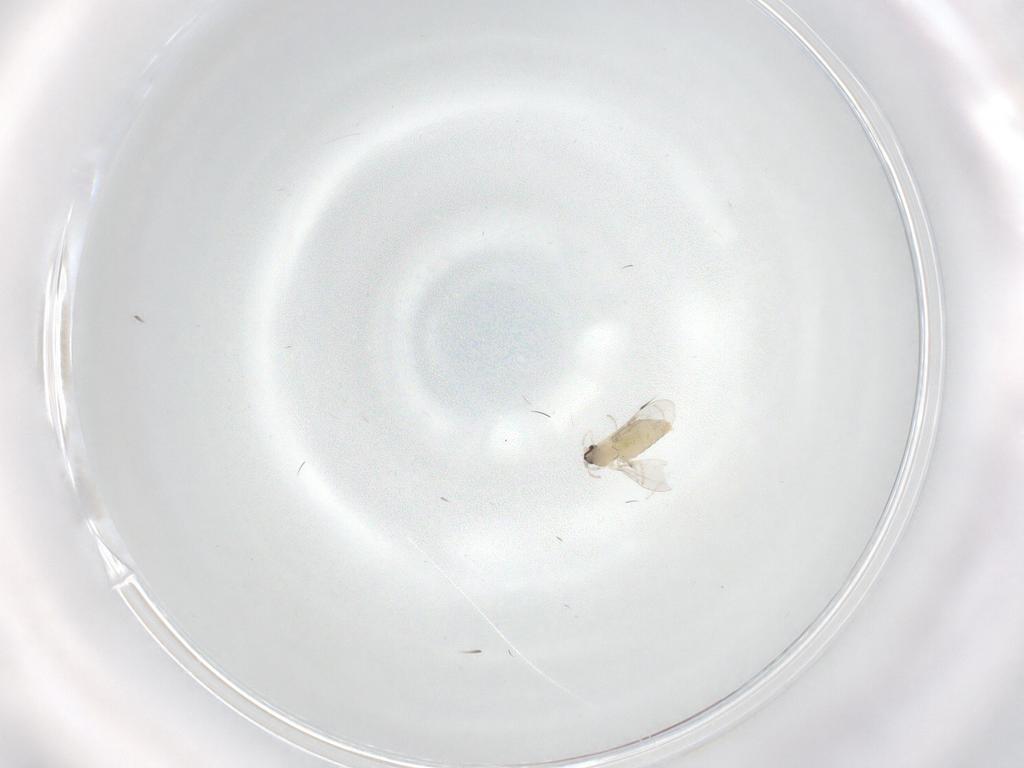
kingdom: Animalia
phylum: Arthropoda
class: Insecta
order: Diptera
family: Cecidomyiidae
